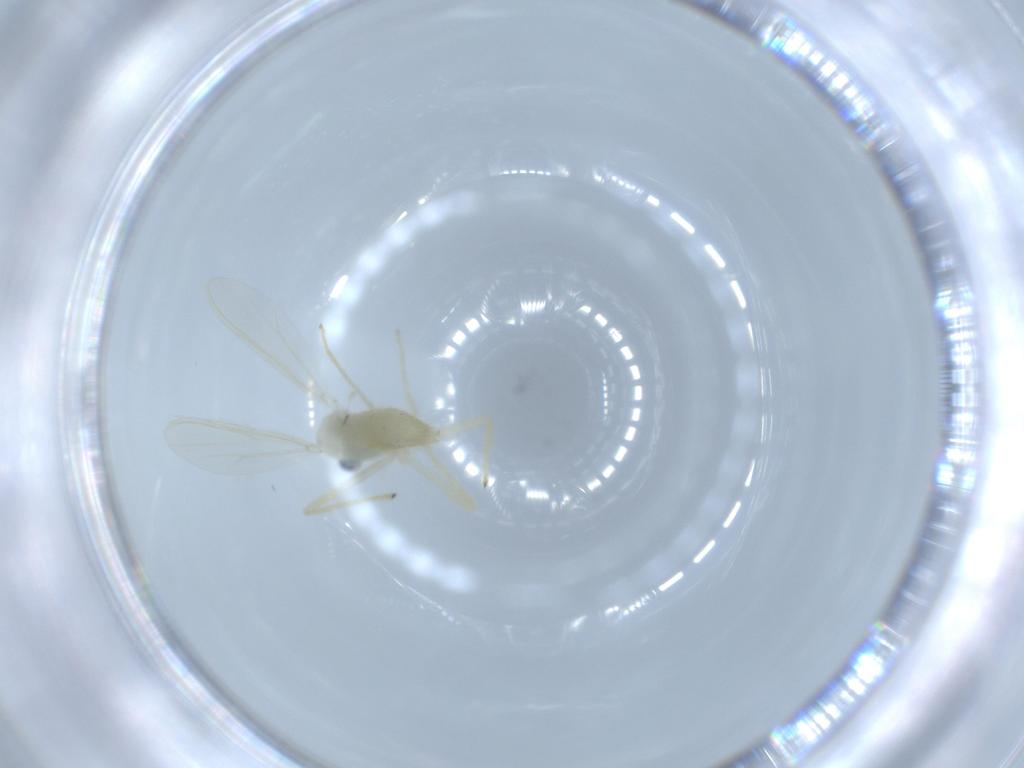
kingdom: Animalia
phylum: Arthropoda
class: Insecta
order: Diptera
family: Chironomidae
